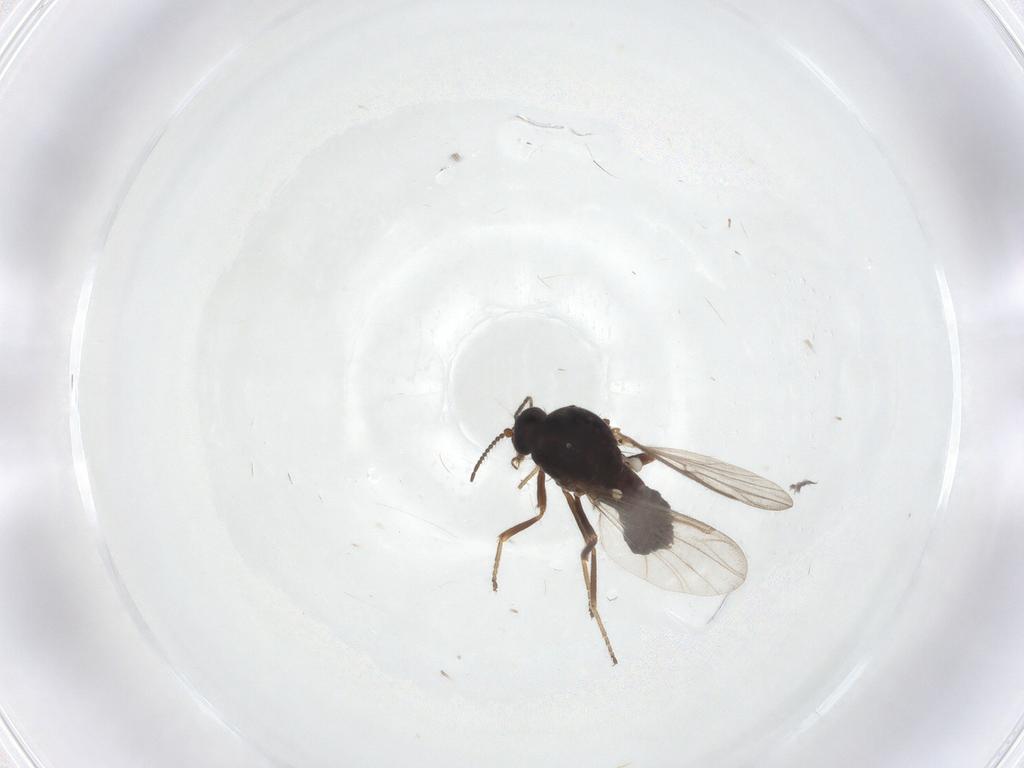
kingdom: Animalia
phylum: Arthropoda
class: Insecta
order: Diptera
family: Ceratopogonidae
